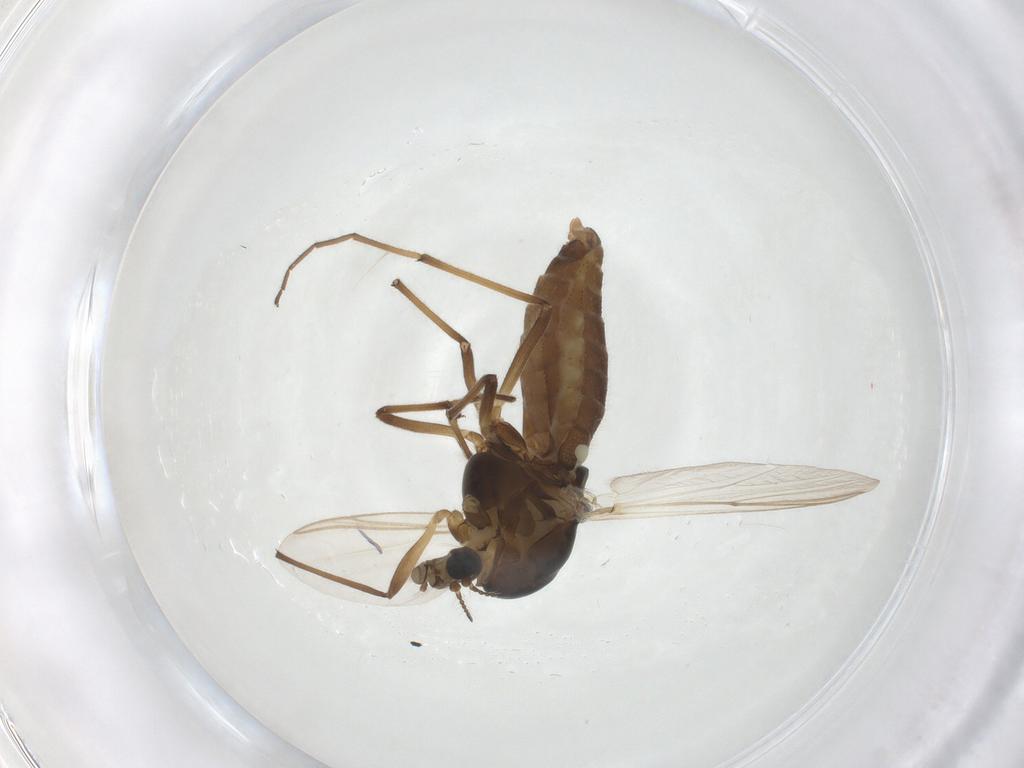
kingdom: Animalia
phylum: Arthropoda
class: Insecta
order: Diptera
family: Chironomidae
